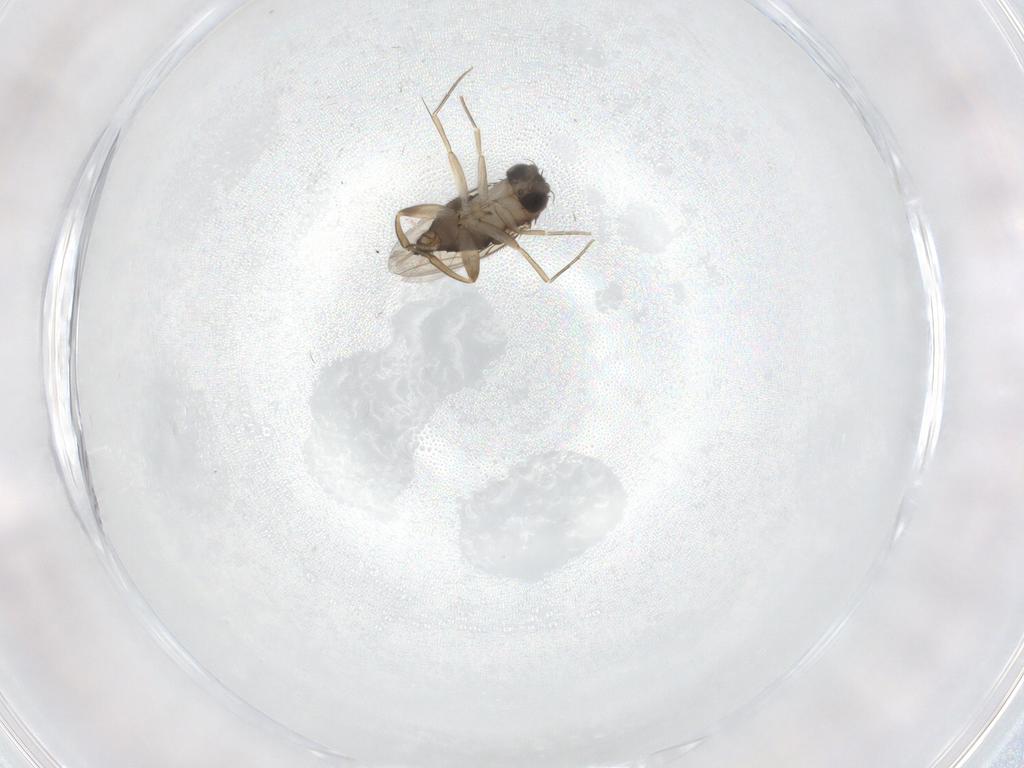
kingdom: Animalia
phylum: Arthropoda
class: Insecta
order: Diptera
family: Phoridae
